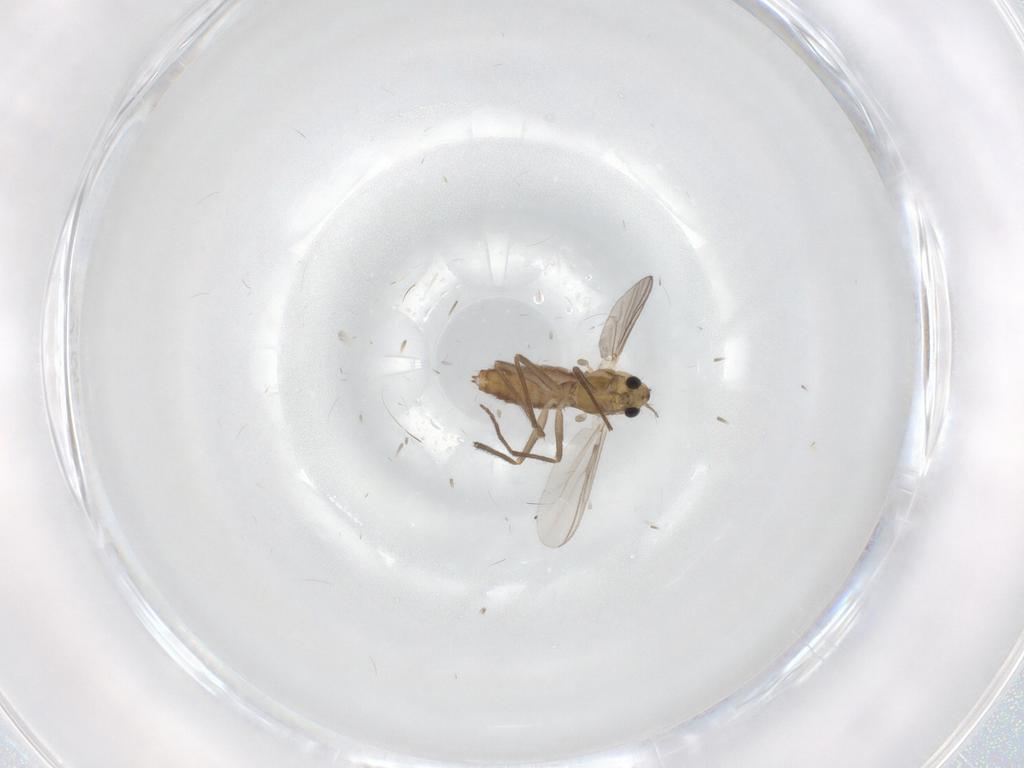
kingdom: Animalia
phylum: Arthropoda
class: Insecta
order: Diptera
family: Chironomidae
